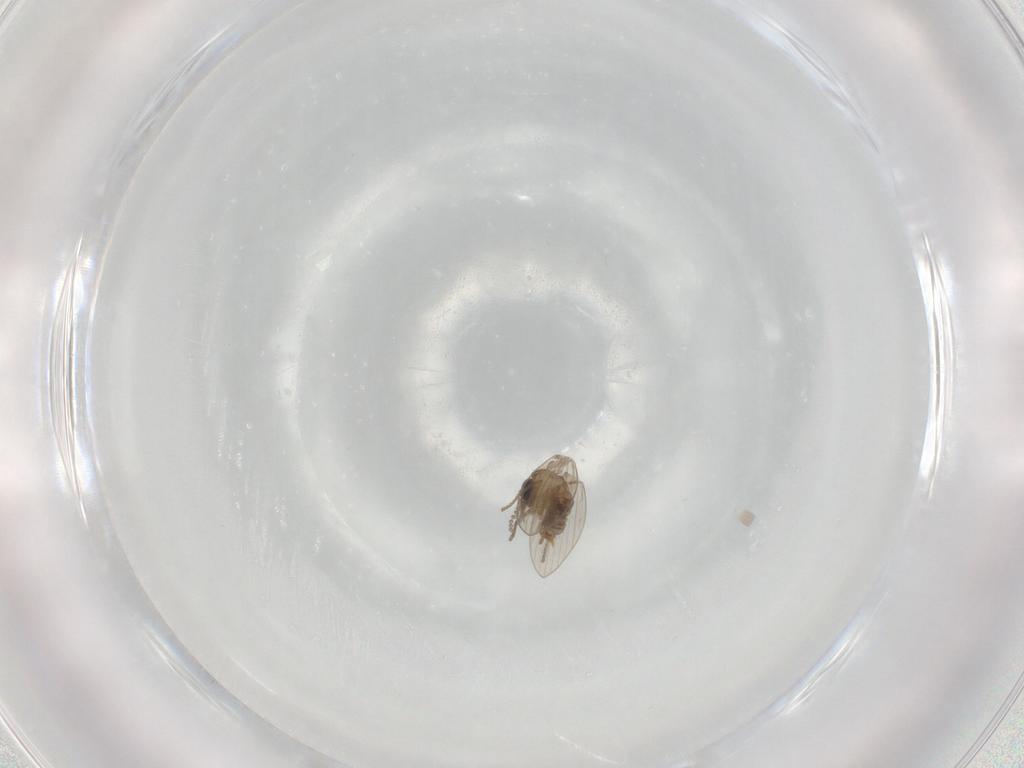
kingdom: Animalia
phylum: Arthropoda
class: Insecta
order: Diptera
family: Psychodidae
